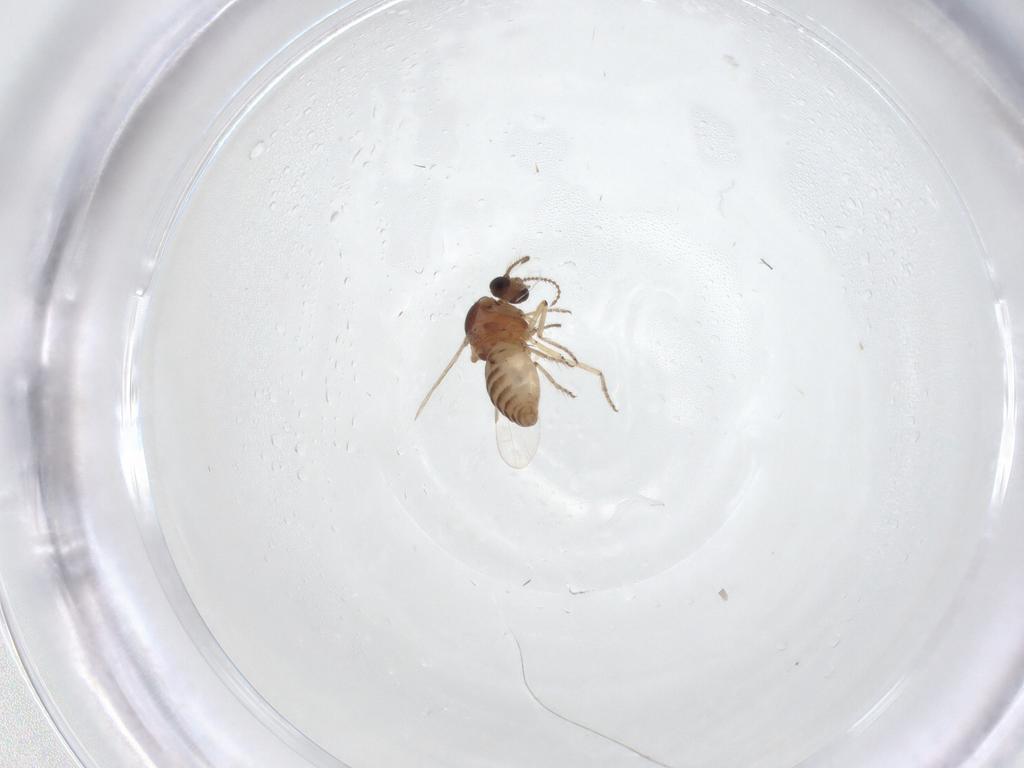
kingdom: Animalia
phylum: Arthropoda
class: Insecta
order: Diptera
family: Ceratopogonidae
